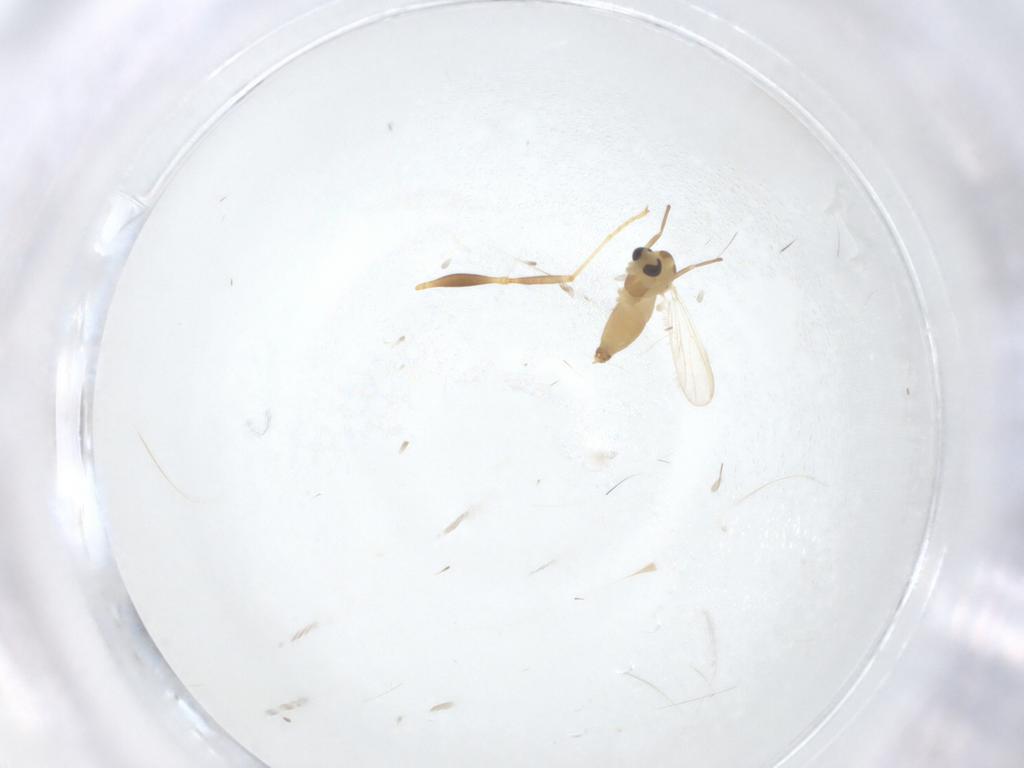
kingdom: Animalia
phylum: Arthropoda
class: Insecta
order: Diptera
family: Chironomidae
